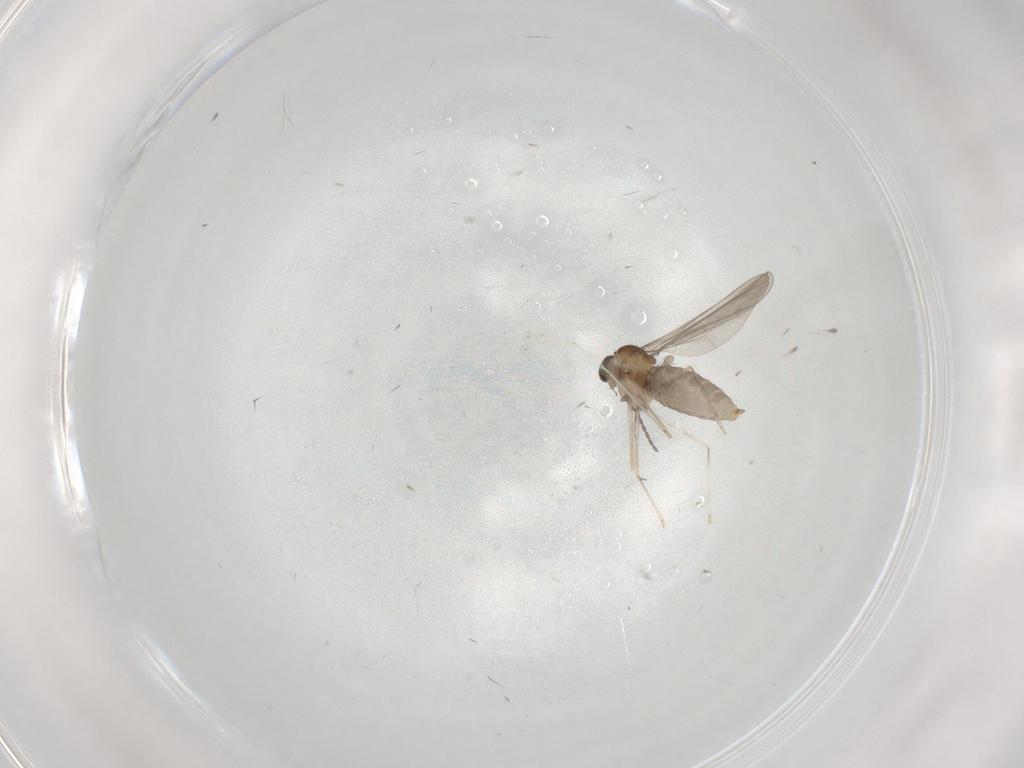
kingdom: Animalia
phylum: Arthropoda
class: Insecta
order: Diptera
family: Cecidomyiidae
